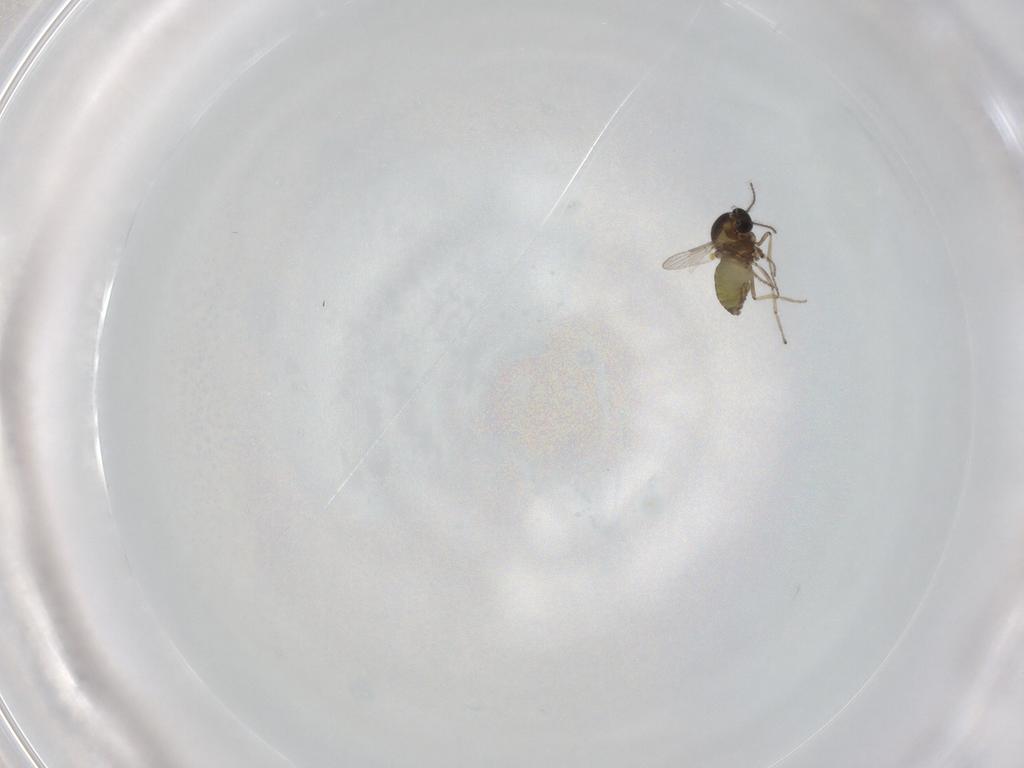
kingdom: Animalia
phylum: Arthropoda
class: Insecta
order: Diptera
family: Ceratopogonidae
